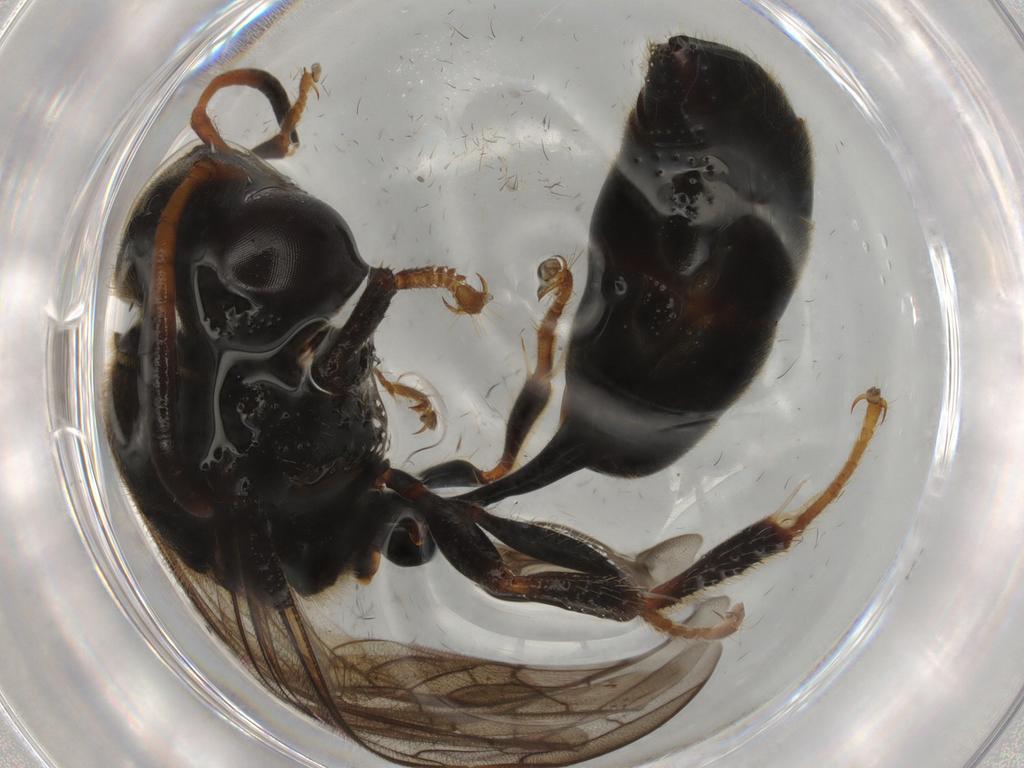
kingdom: Animalia
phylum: Arthropoda
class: Insecta
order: Hymenoptera
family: Psenidae
